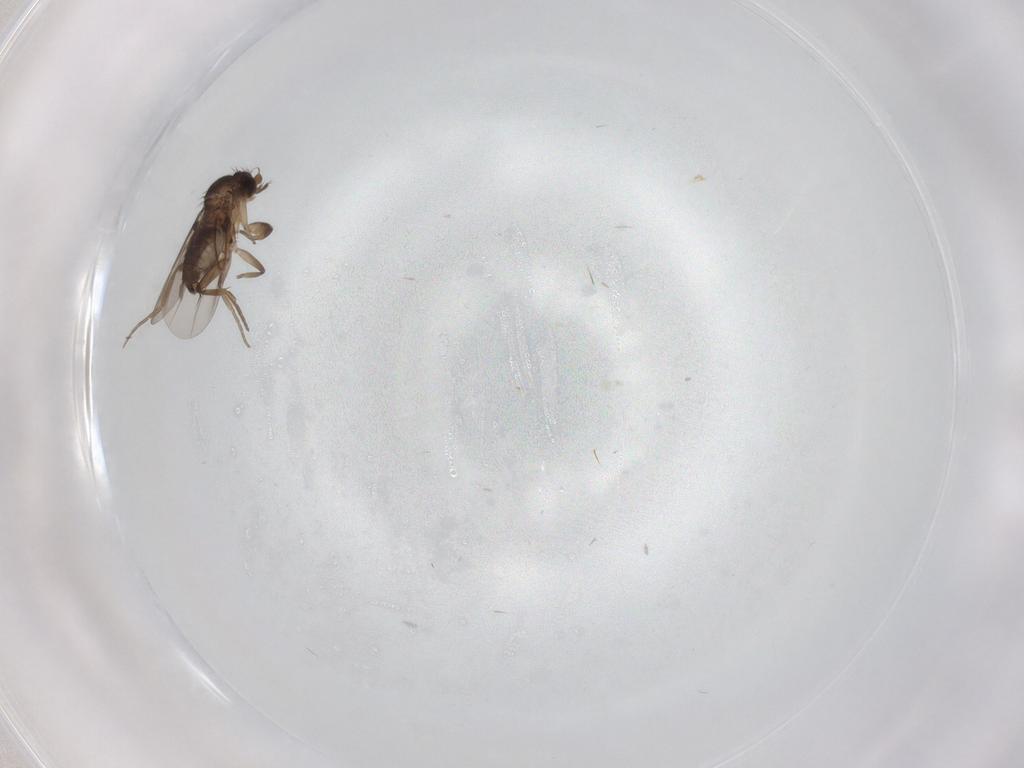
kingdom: Animalia
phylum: Arthropoda
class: Insecta
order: Diptera
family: Phoridae
